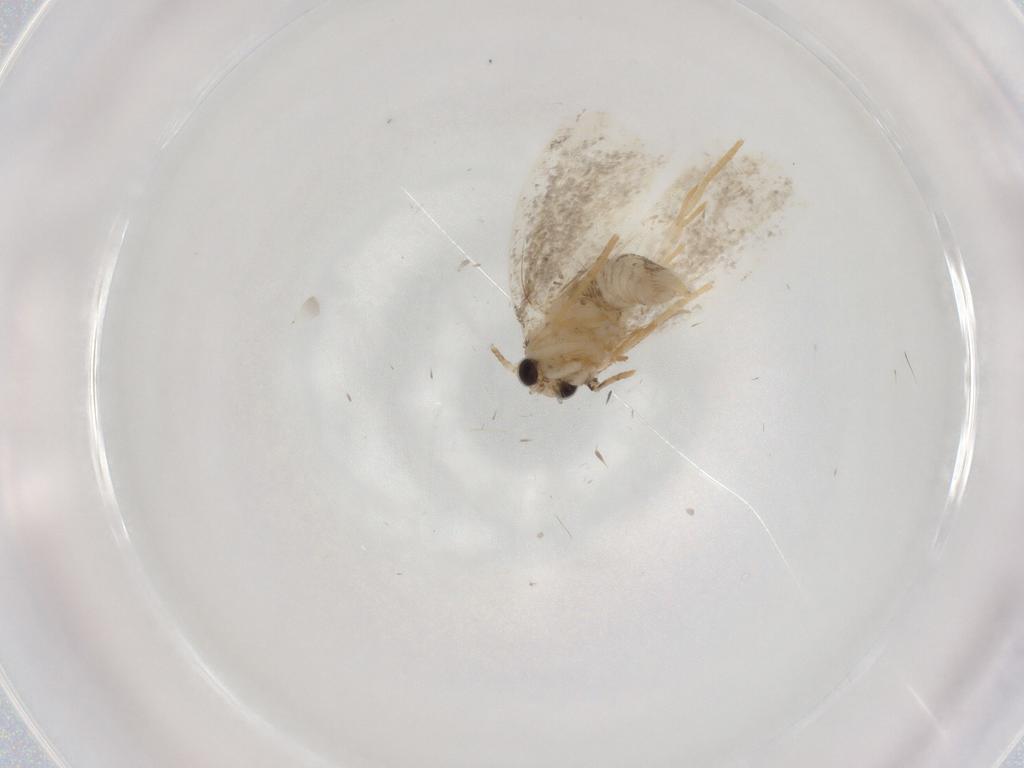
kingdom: Animalia
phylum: Arthropoda
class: Insecta
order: Lepidoptera
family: Psychidae
